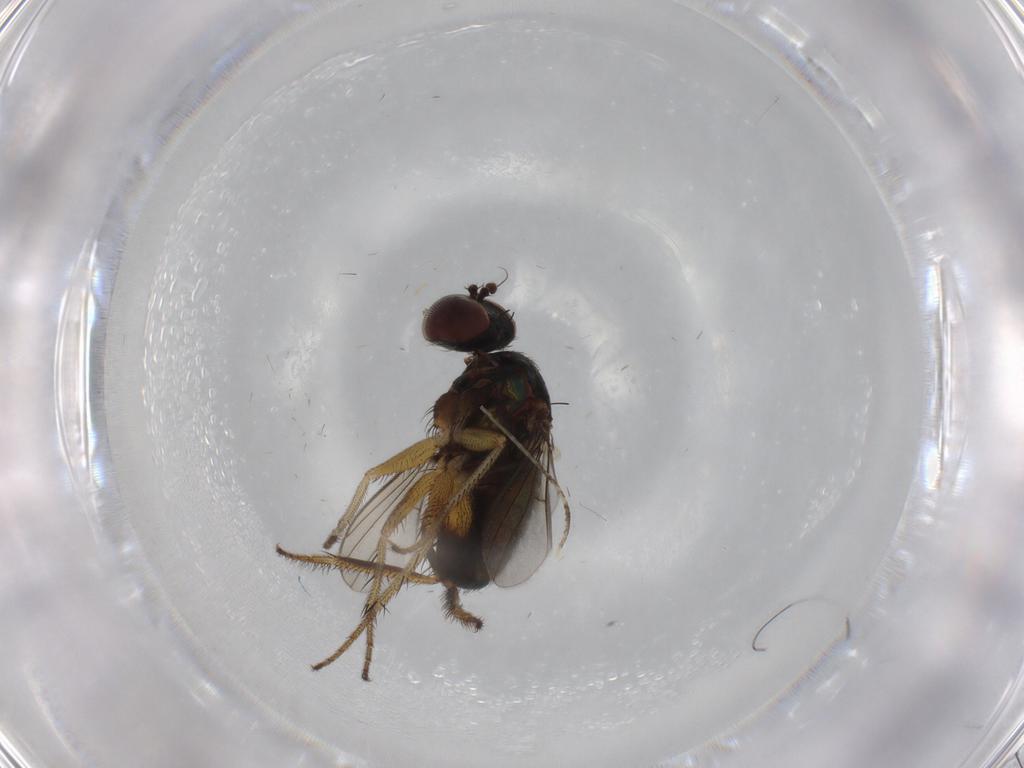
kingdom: Animalia
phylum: Arthropoda
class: Insecta
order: Diptera
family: Dolichopodidae
